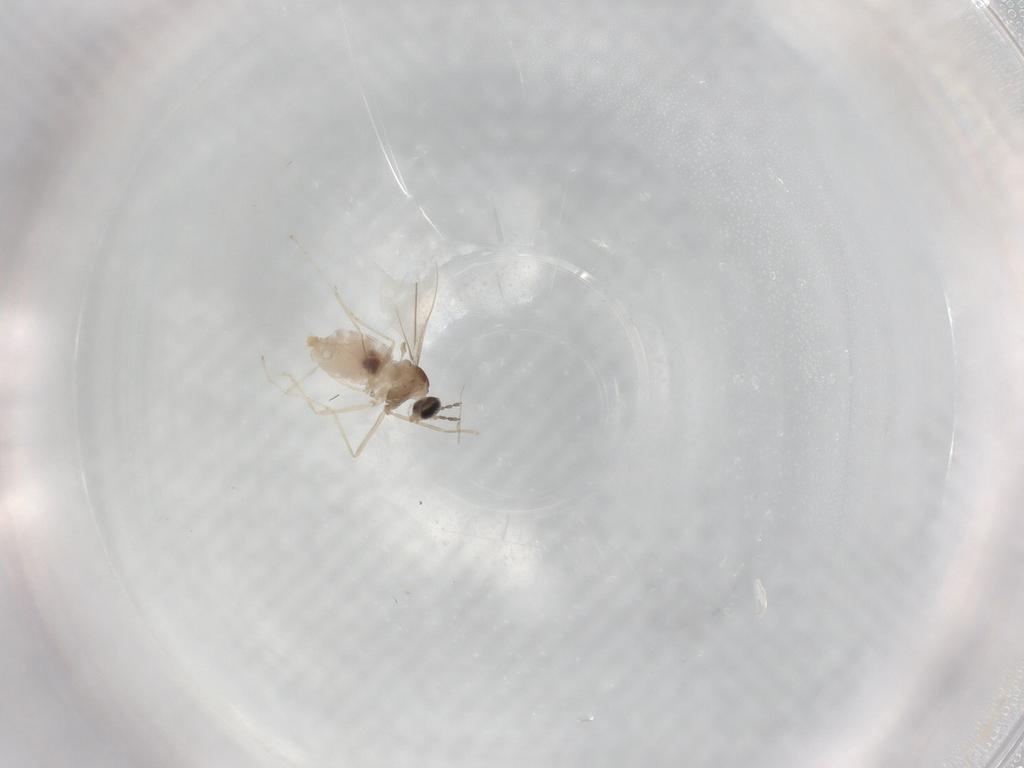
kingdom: Animalia
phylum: Arthropoda
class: Insecta
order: Diptera
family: Cecidomyiidae
